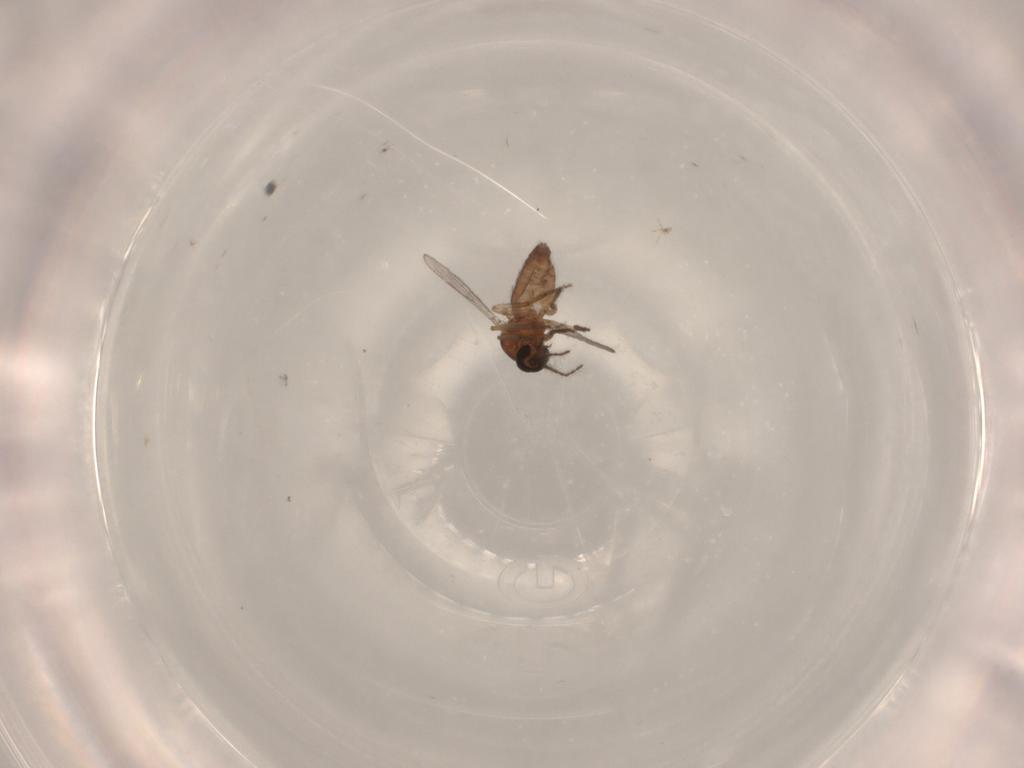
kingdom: Animalia
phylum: Arthropoda
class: Insecta
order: Diptera
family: Ceratopogonidae
